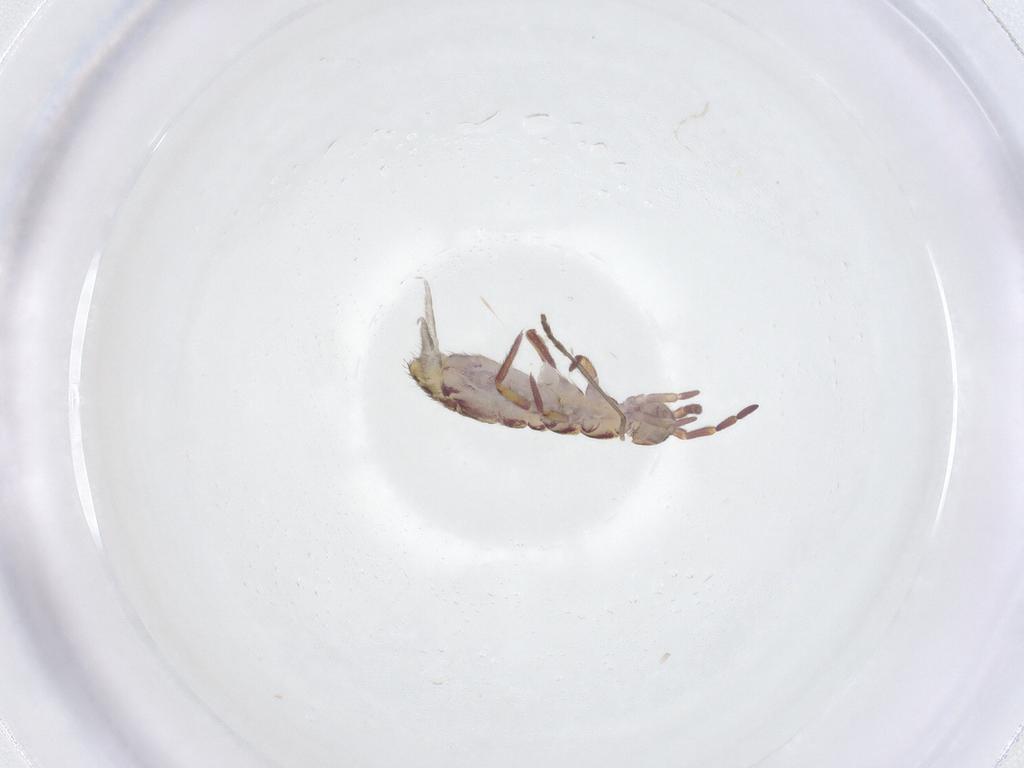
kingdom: Animalia
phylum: Arthropoda
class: Collembola
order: Entomobryomorpha
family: Isotomidae
